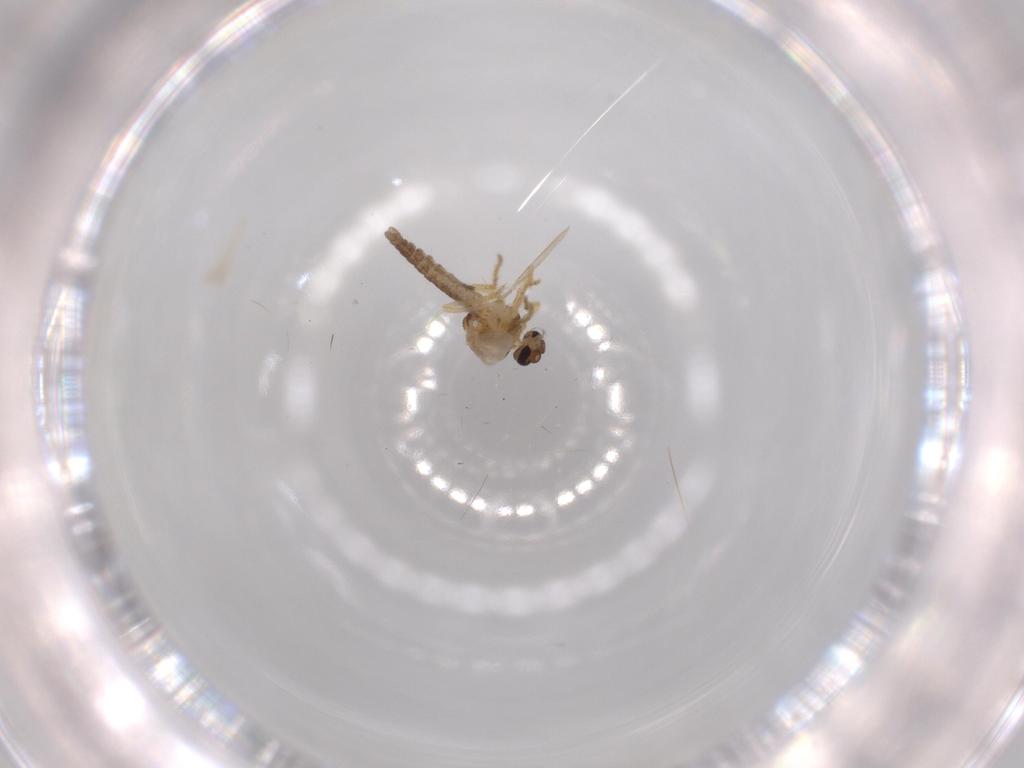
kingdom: Animalia
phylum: Arthropoda
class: Insecta
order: Diptera
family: Ceratopogonidae
